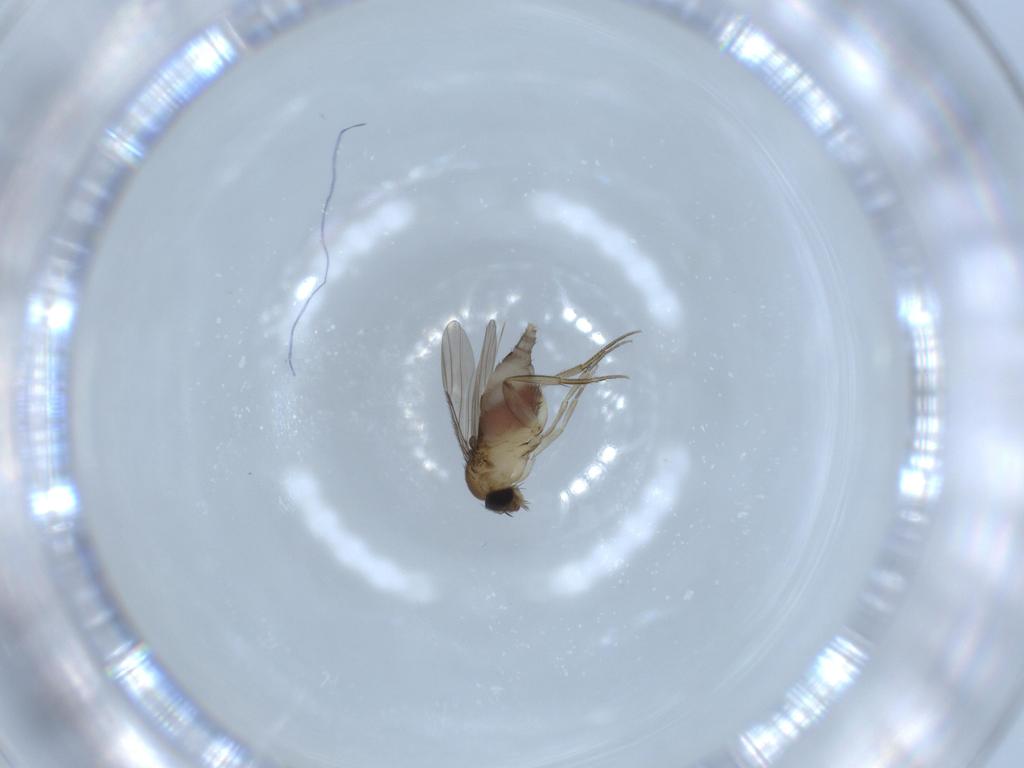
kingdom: Animalia
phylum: Arthropoda
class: Insecta
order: Diptera
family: Phoridae
